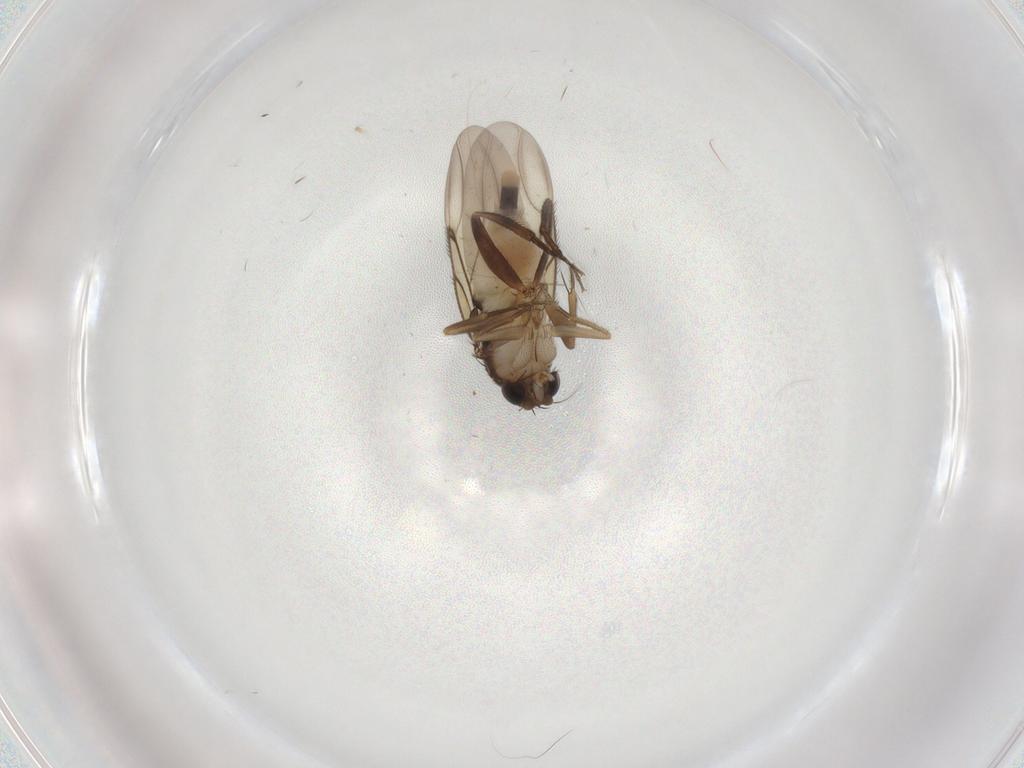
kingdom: Animalia
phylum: Arthropoda
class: Insecta
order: Diptera
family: Phoridae
